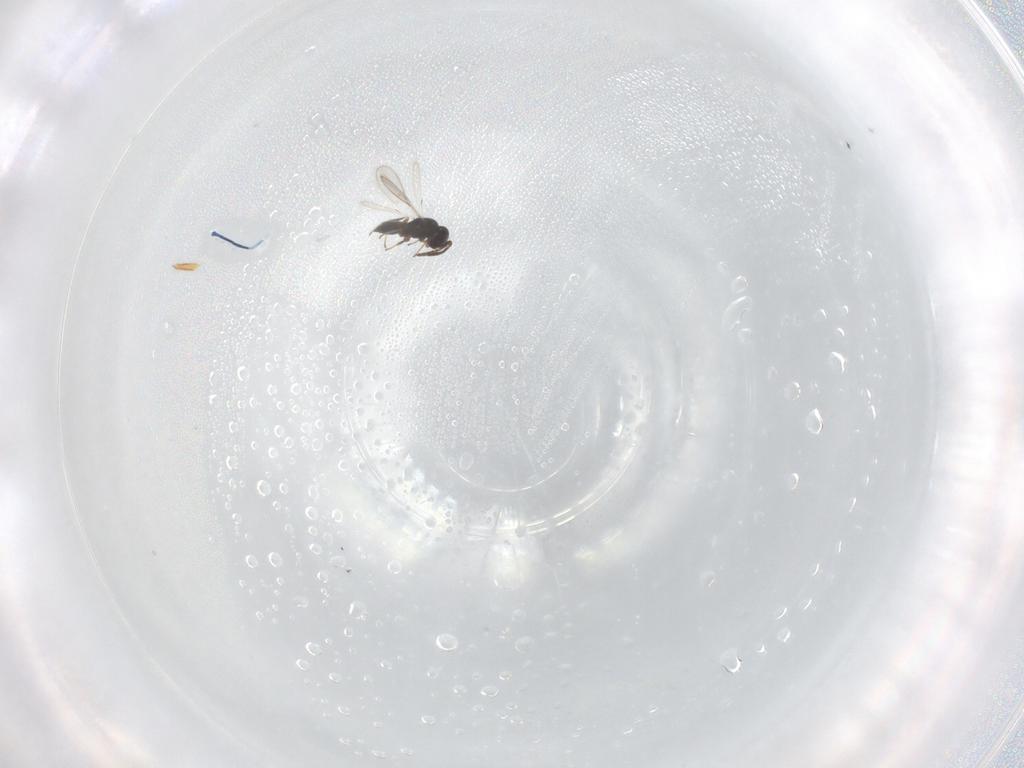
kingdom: Animalia
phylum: Arthropoda
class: Insecta
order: Hymenoptera
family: Scelionidae
